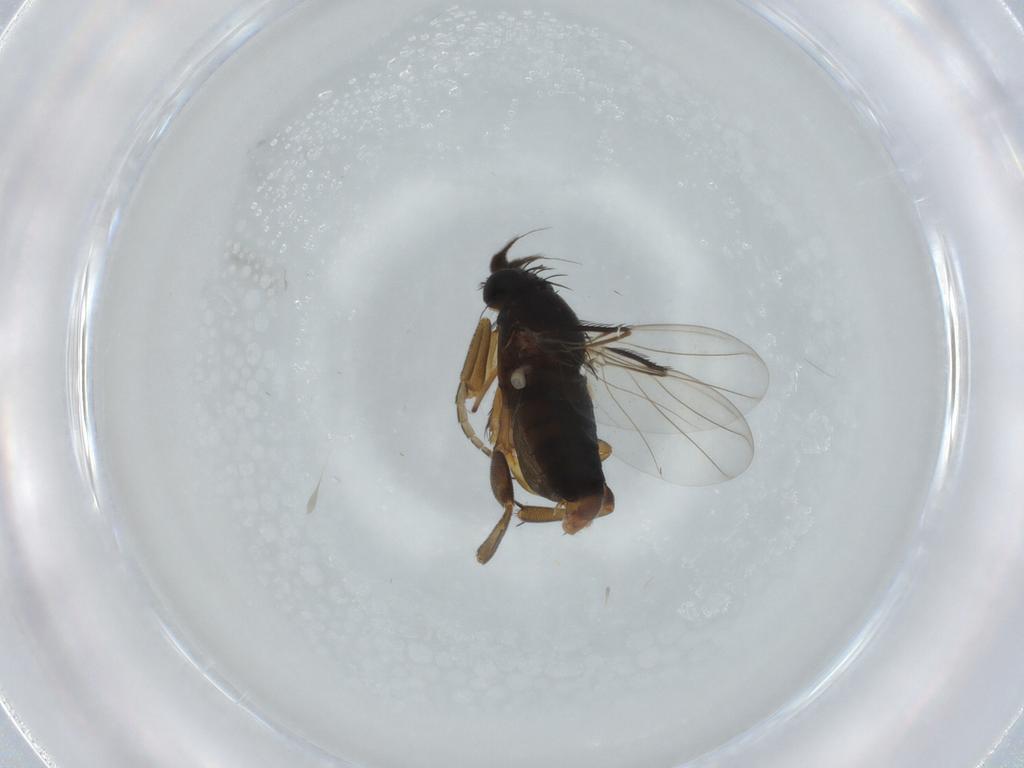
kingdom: Animalia
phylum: Arthropoda
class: Insecta
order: Diptera
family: Phoridae
